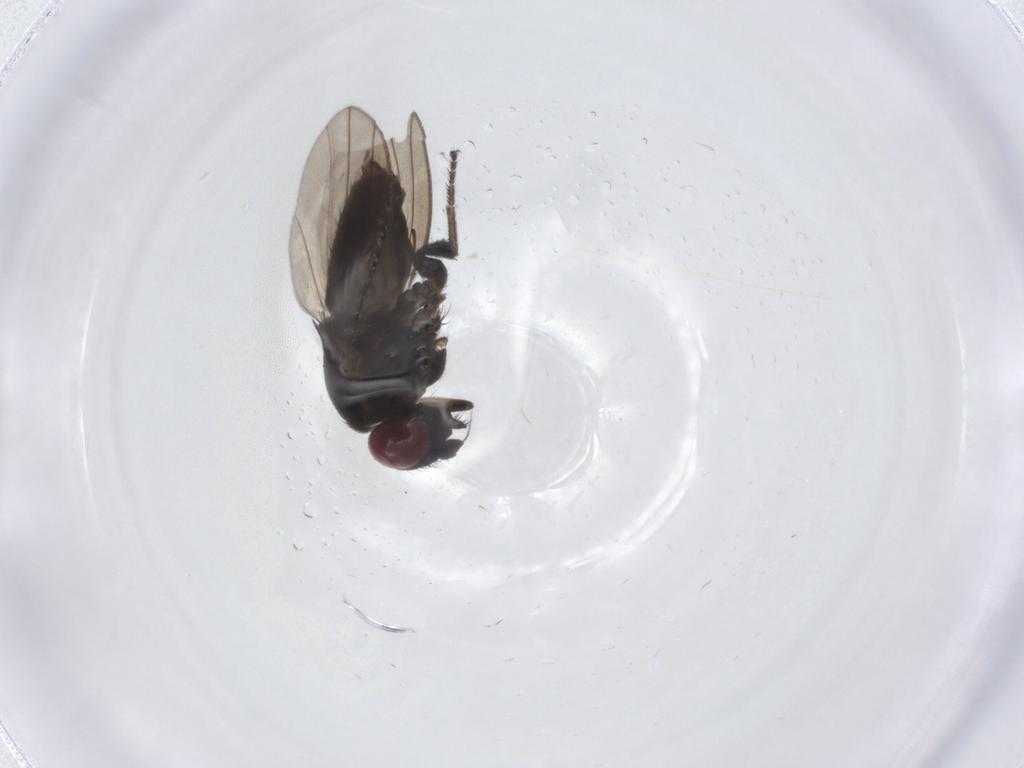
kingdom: Animalia
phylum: Arthropoda
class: Insecta
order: Diptera
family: Milichiidae
